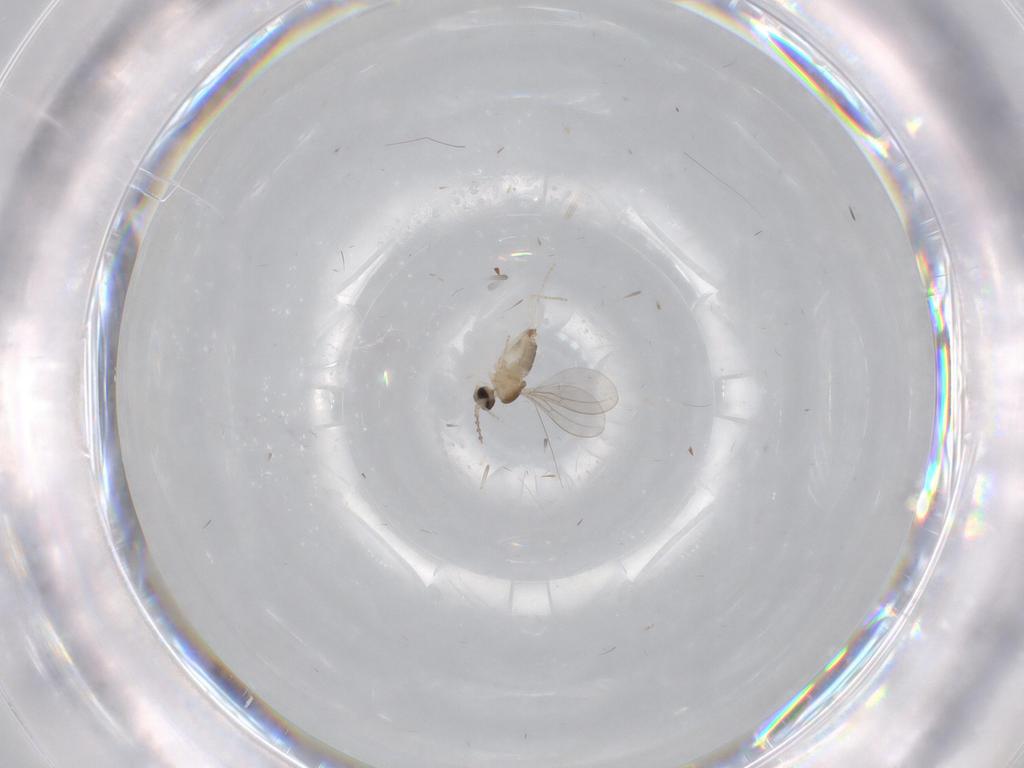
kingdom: Animalia
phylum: Arthropoda
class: Insecta
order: Diptera
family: Cecidomyiidae
